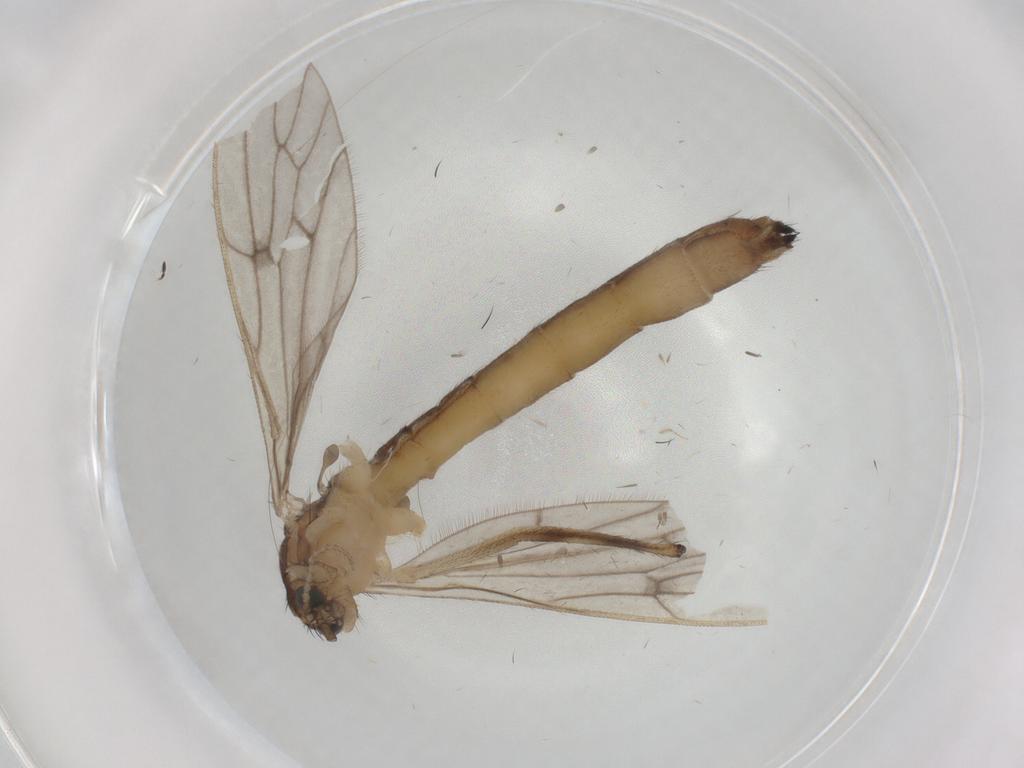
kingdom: Animalia
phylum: Arthropoda
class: Insecta
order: Diptera
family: Limoniidae
